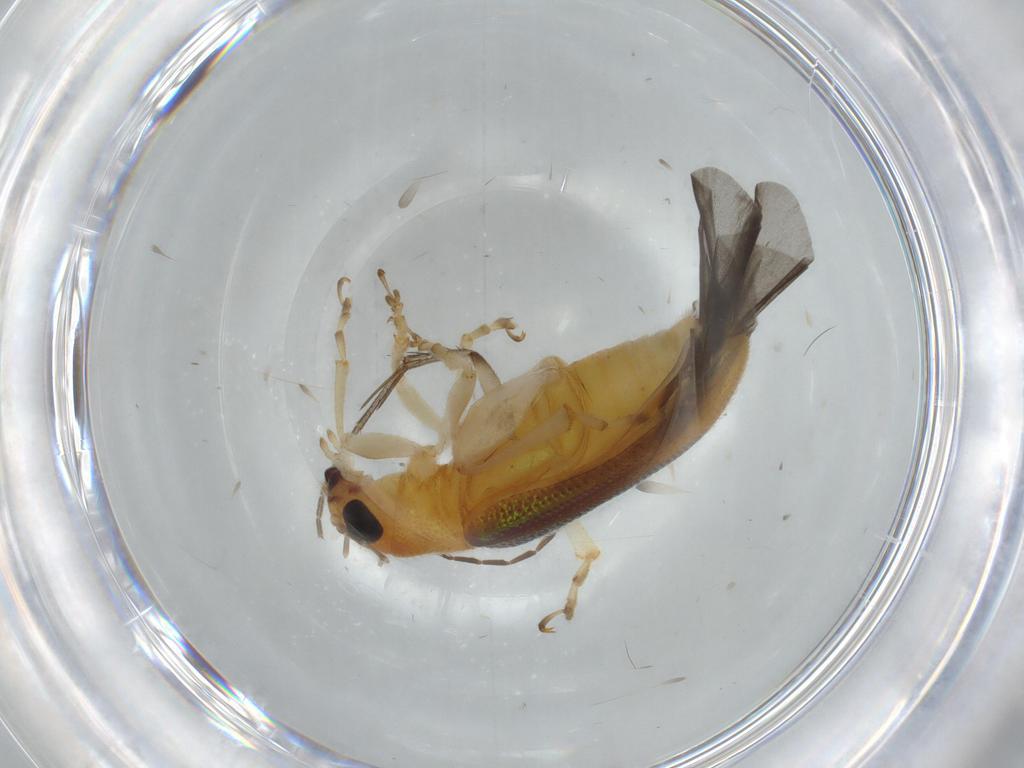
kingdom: Animalia
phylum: Arthropoda
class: Insecta
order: Coleoptera
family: Chrysomelidae
